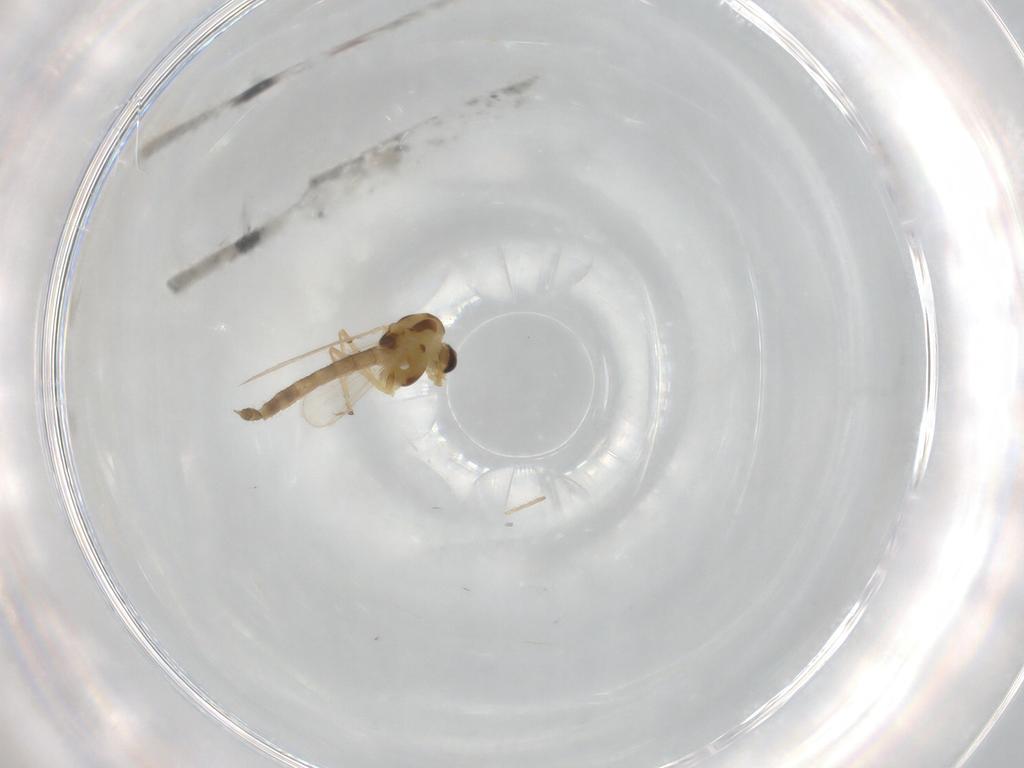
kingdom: Animalia
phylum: Arthropoda
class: Insecta
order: Diptera
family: Chironomidae
